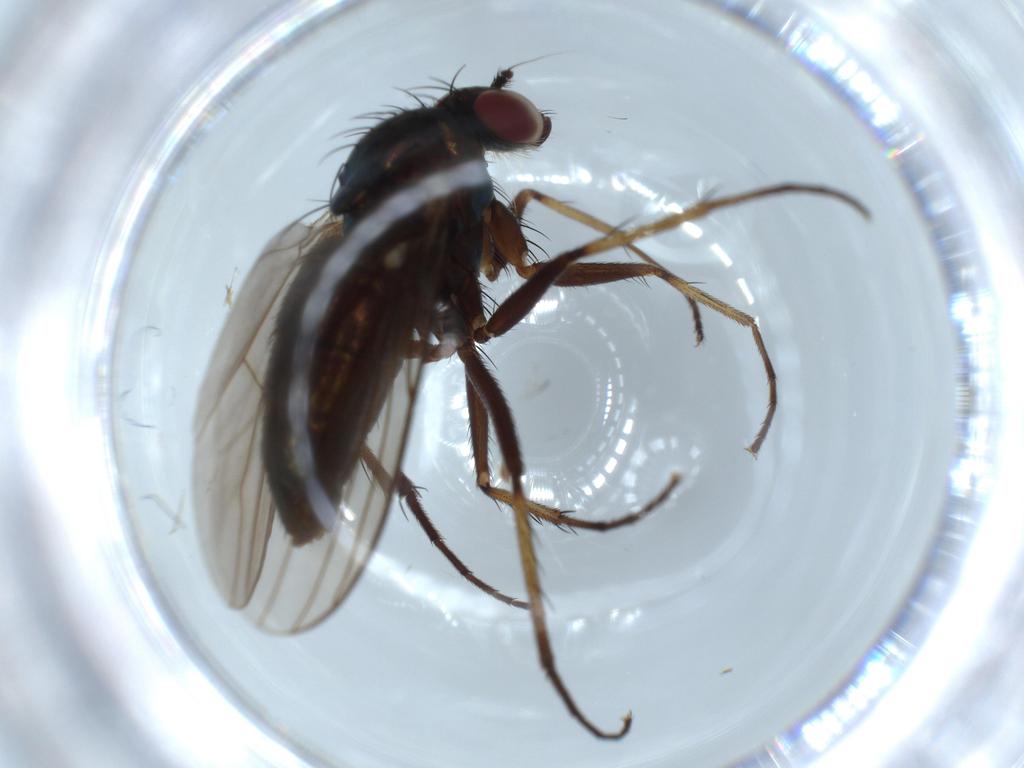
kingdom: Animalia
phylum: Arthropoda
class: Insecta
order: Diptera
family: Dolichopodidae
